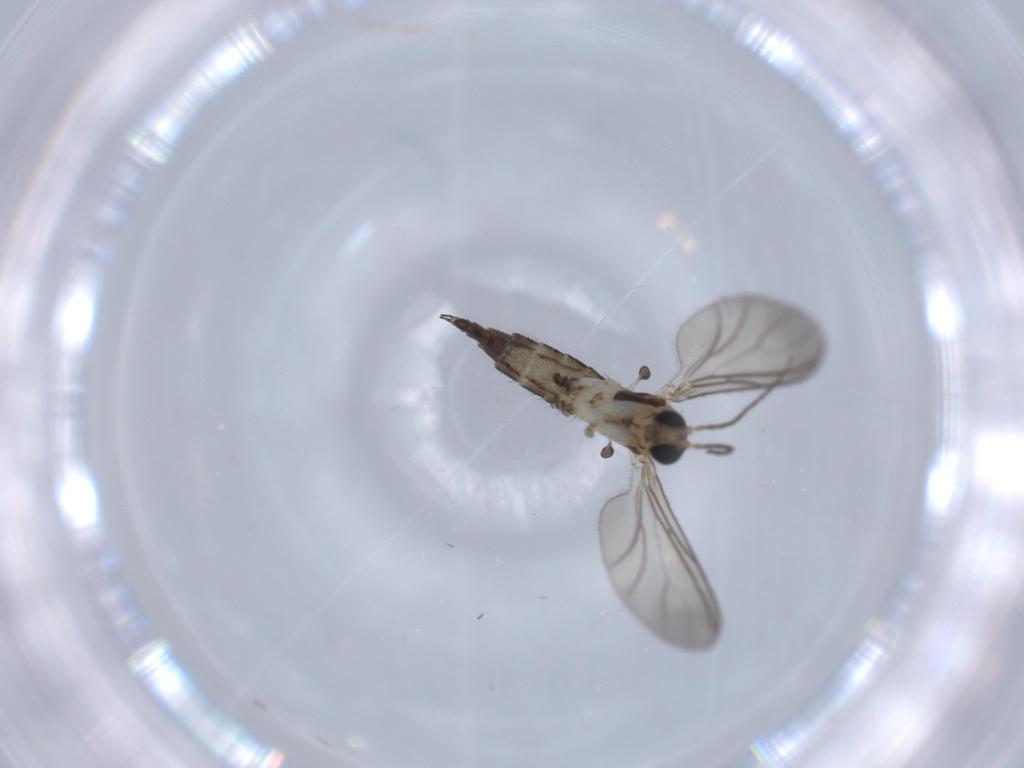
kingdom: Animalia
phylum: Arthropoda
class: Insecta
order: Diptera
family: Sciaridae
